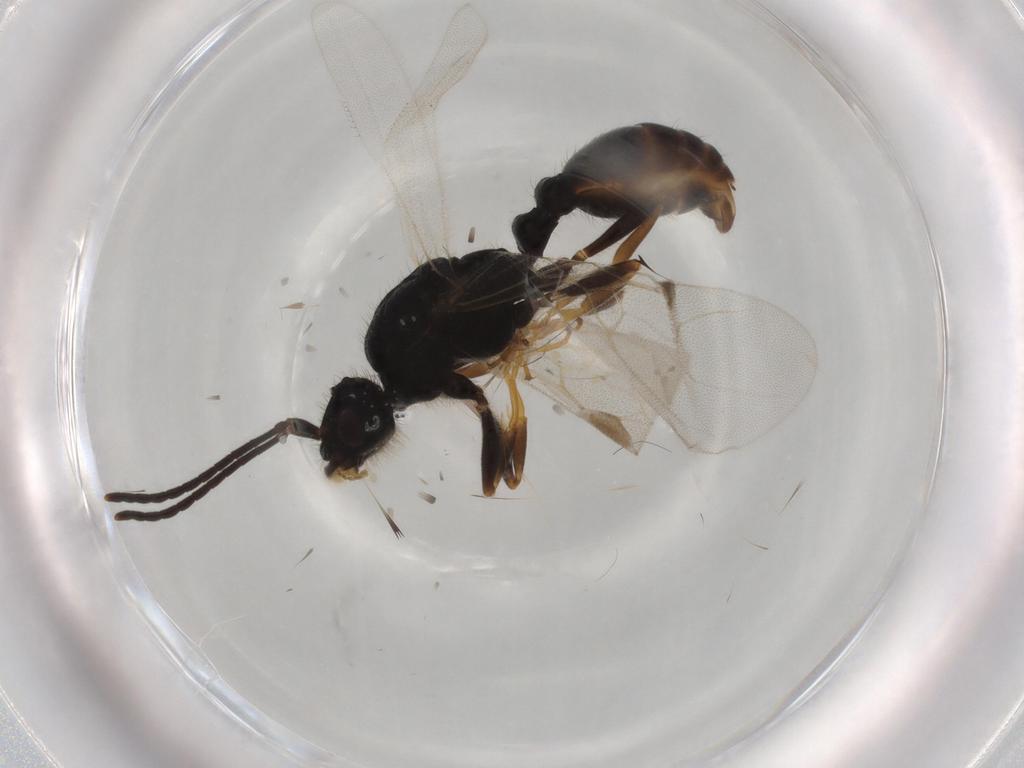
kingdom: Animalia
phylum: Arthropoda
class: Insecta
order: Hymenoptera
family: Formicidae
